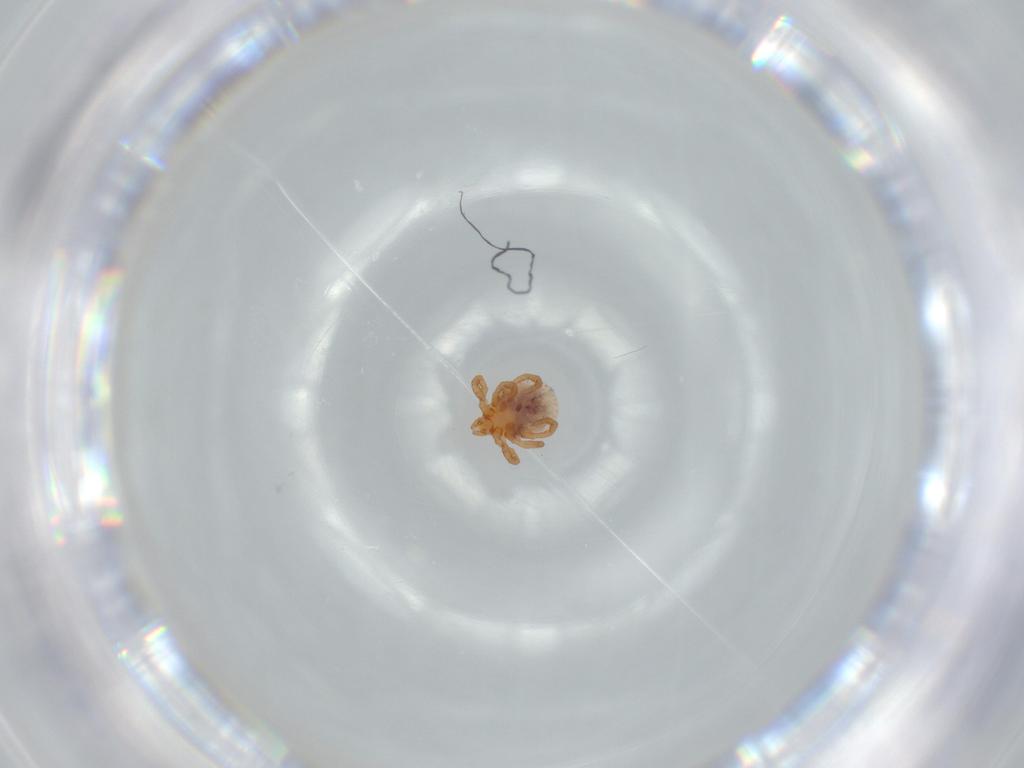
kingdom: Animalia
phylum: Arthropoda
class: Arachnida
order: Ixodida
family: Ixodidae
